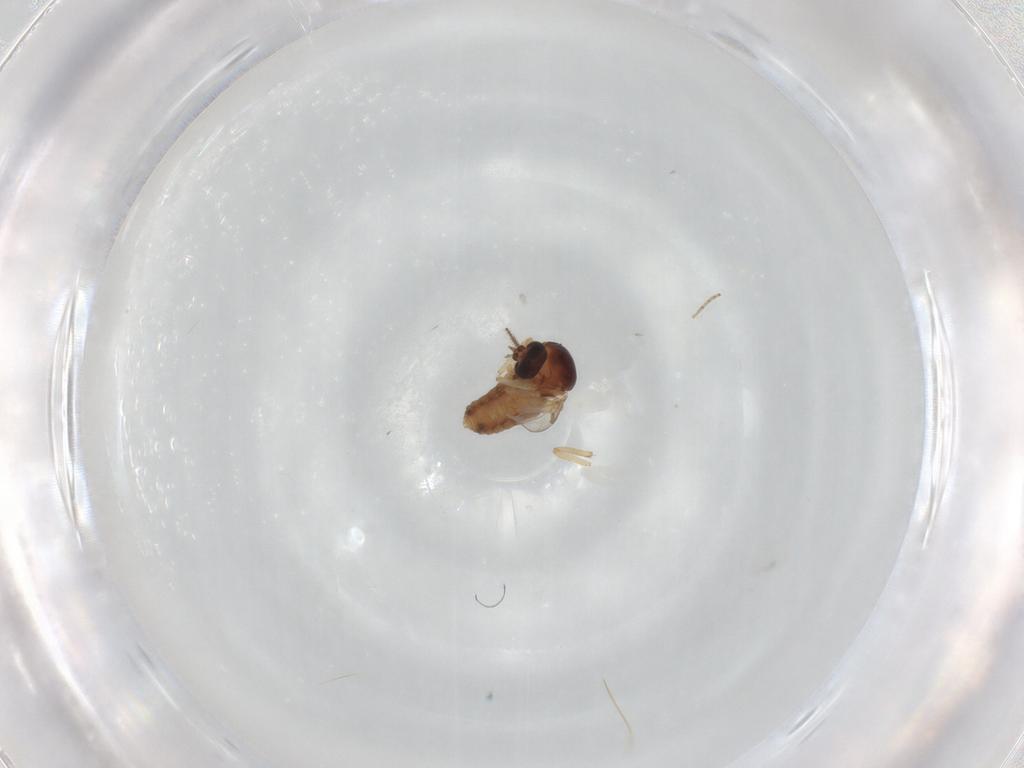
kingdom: Animalia
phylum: Arthropoda
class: Insecta
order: Diptera
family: Ceratopogonidae
